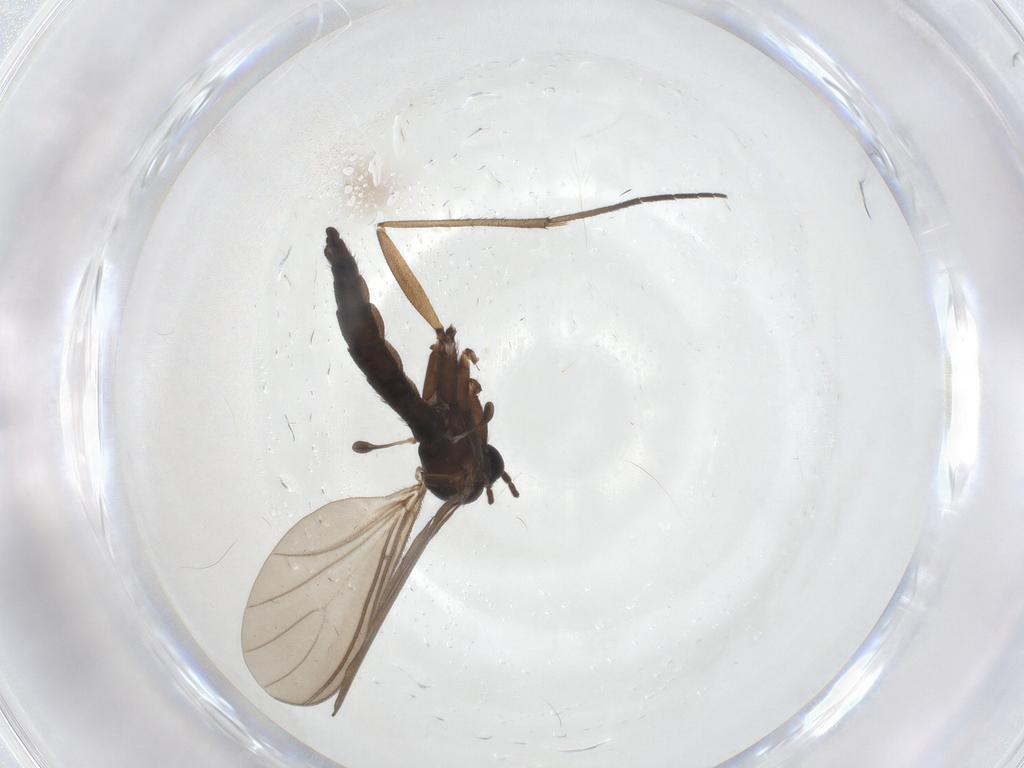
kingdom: Animalia
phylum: Arthropoda
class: Insecta
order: Diptera
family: Sciaridae
